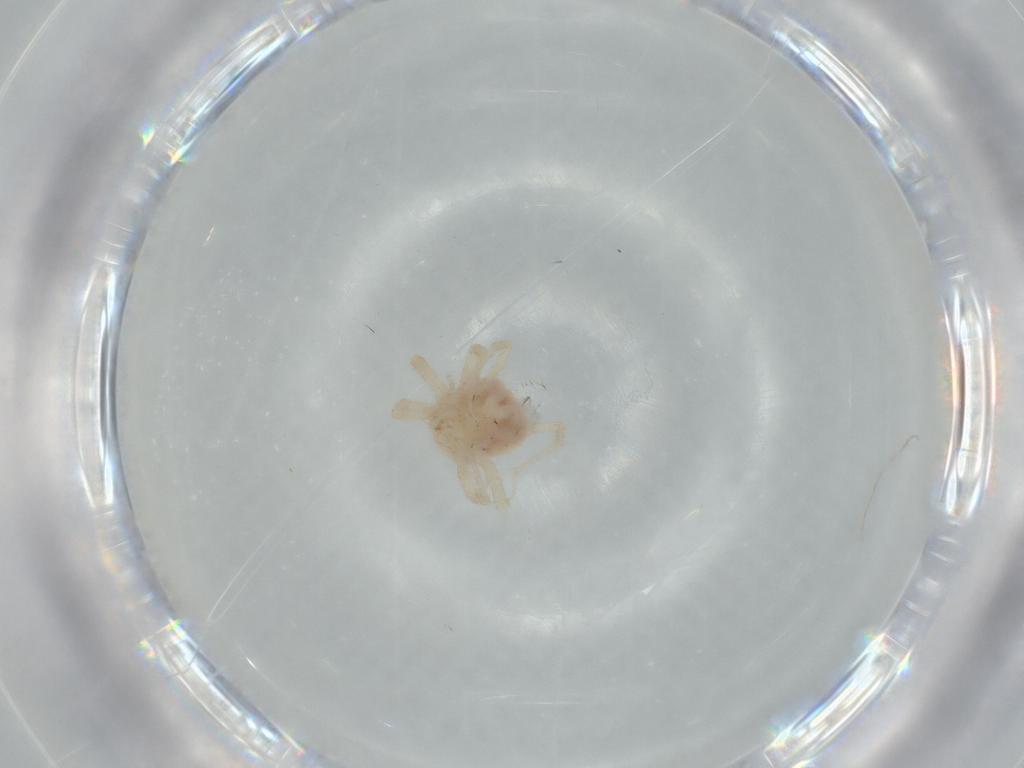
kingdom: Animalia
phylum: Arthropoda
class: Arachnida
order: Trombidiformes
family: Anystidae
